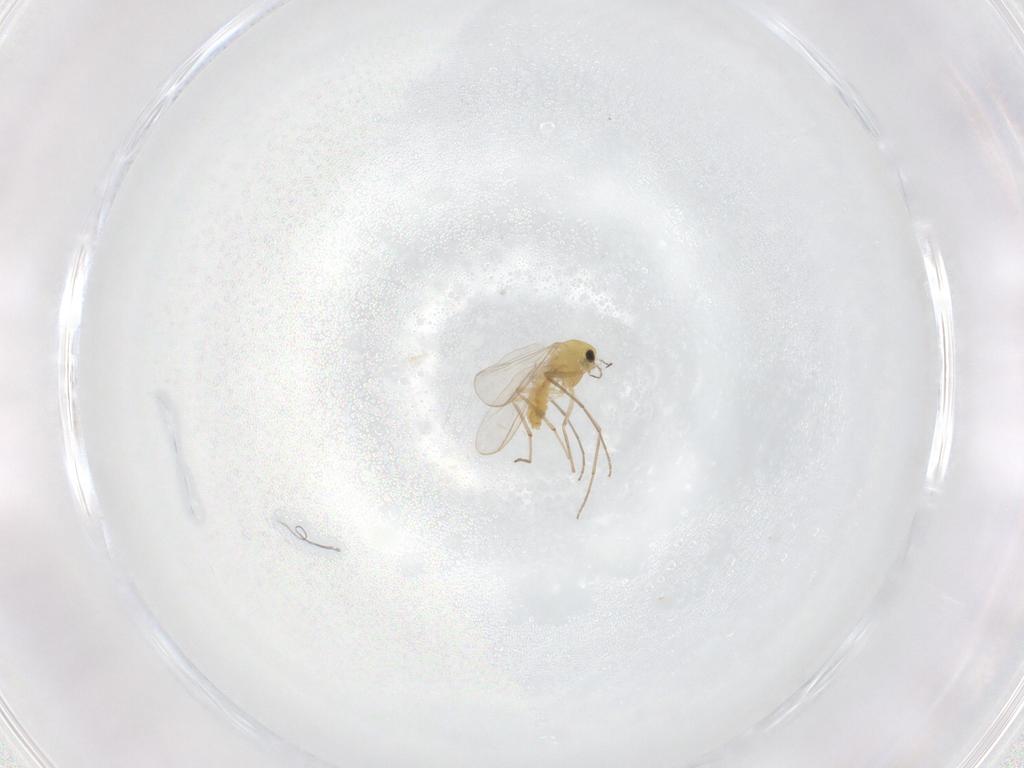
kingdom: Animalia
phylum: Arthropoda
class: Insecta
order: Diptera
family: Chironomidae
